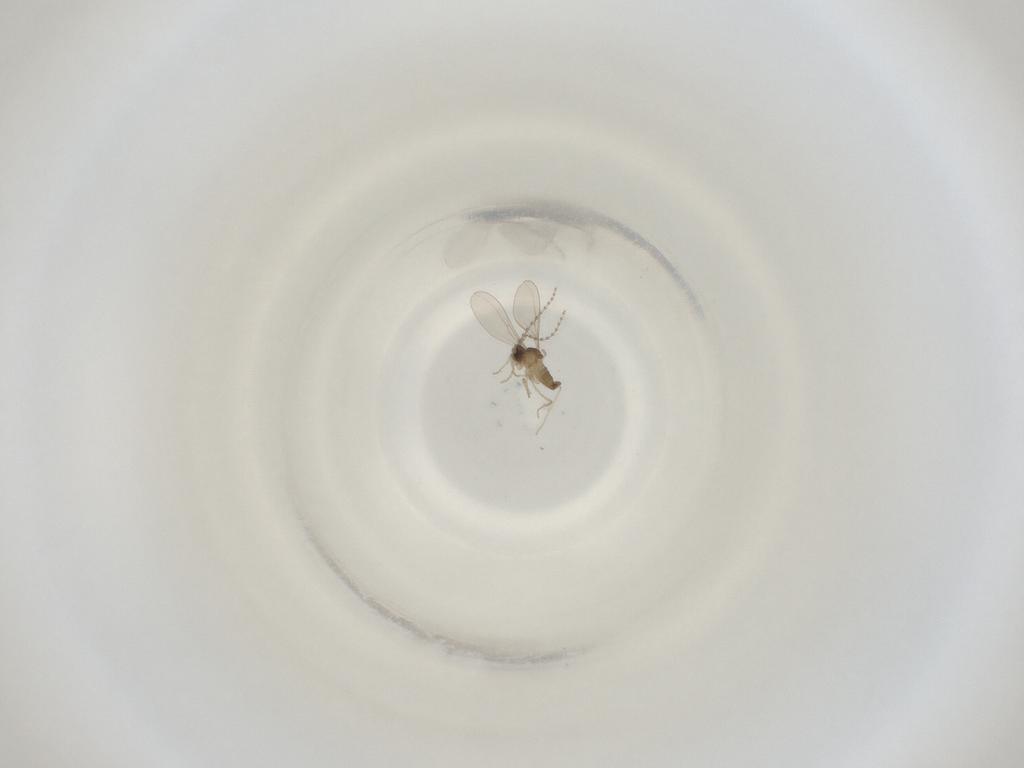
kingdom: Animalia
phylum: Arthropoda
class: Insecta
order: Diptera
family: Cecidomyiidae
